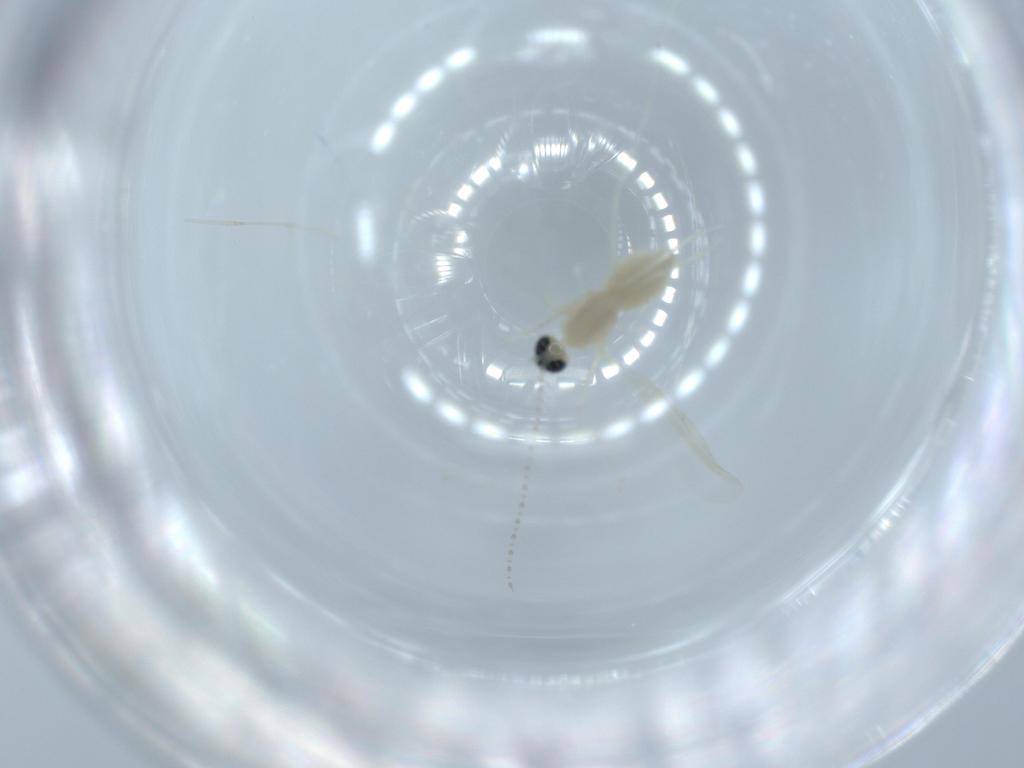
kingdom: Animalia
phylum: Arthropoda
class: Insecta
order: Diptera
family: Cecidomyiidae
